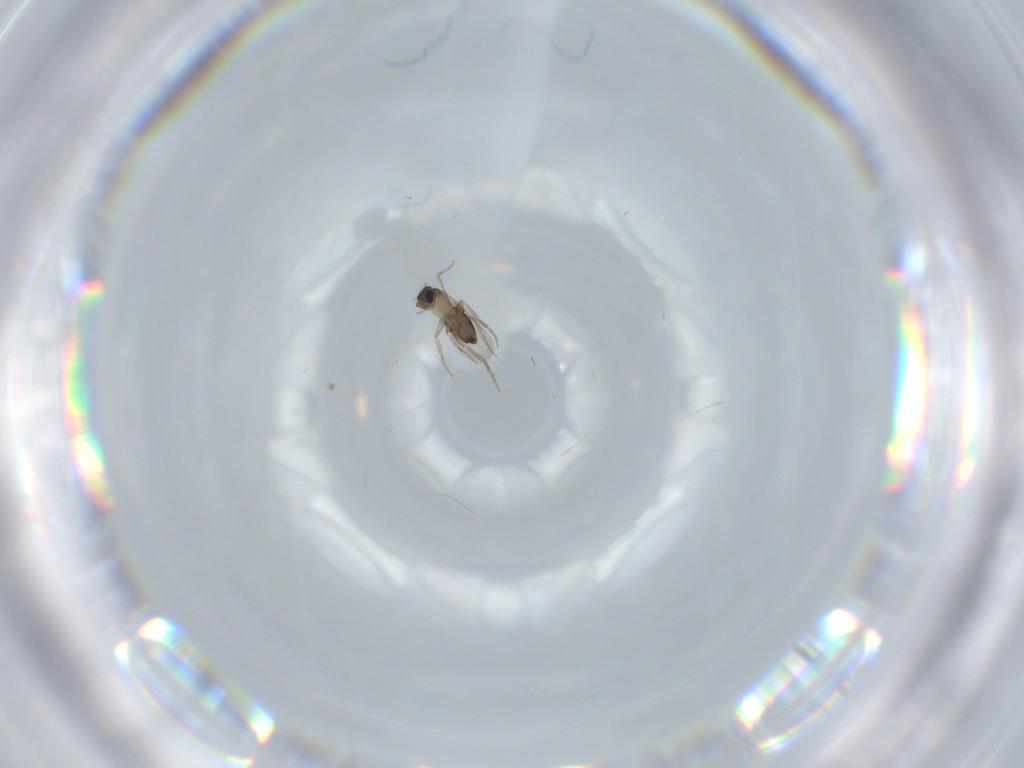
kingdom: Animalia
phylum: Arthropoda
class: Insecta
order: Diptera
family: Phoridae
